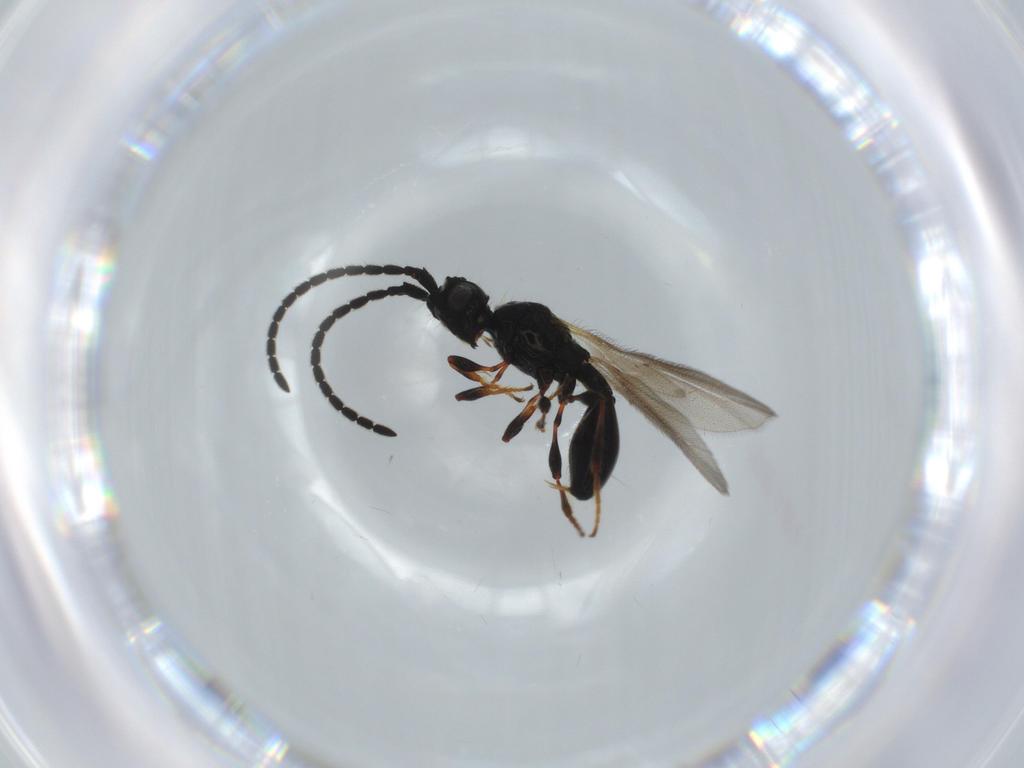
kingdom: Animalia
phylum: Arthropoda
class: Insecta
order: Hymenoptera
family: Diapriidae
